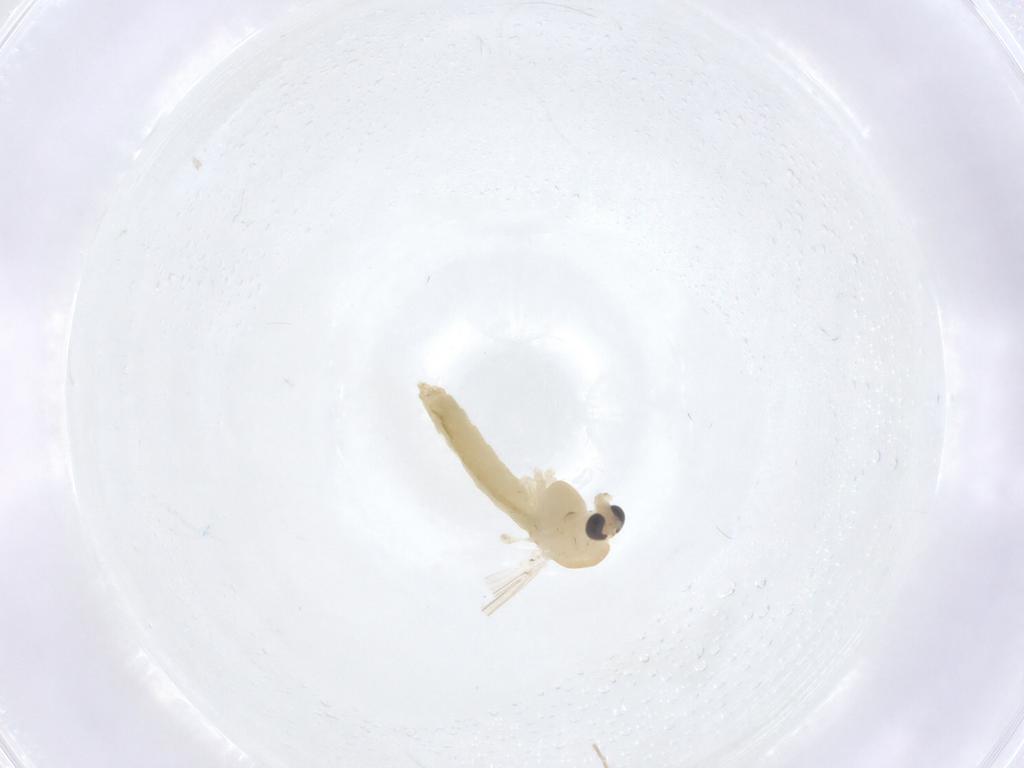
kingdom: Animalia
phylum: Arthropoda
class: Insecta
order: Diptera
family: Chironomidae
